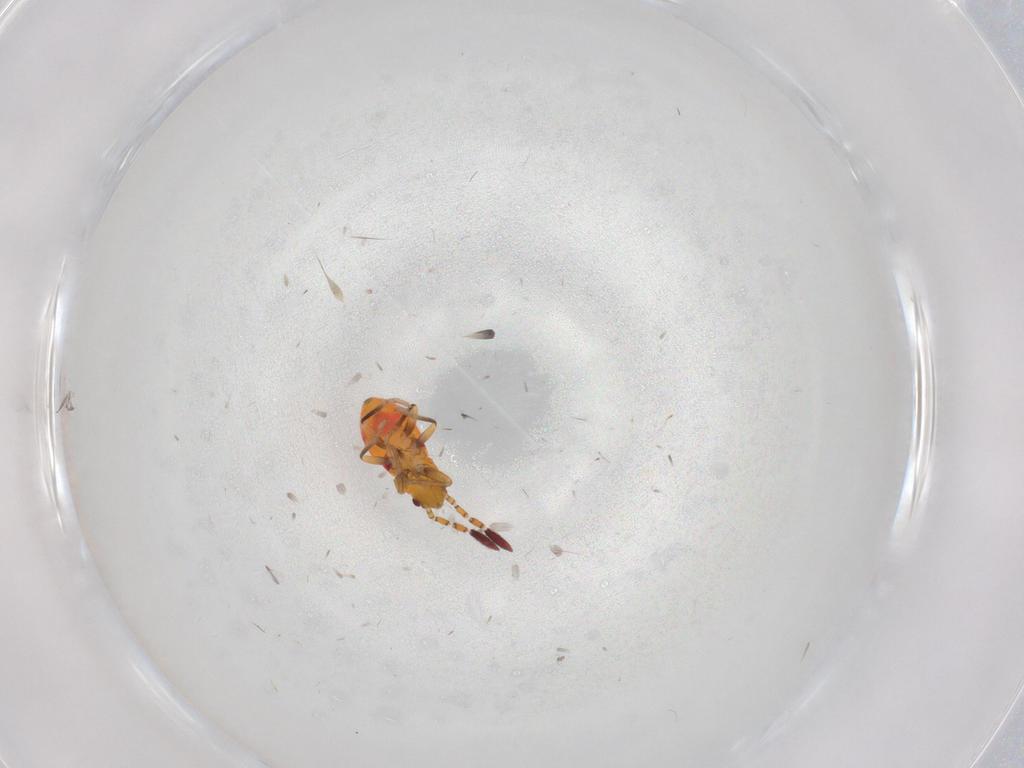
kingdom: Animalia
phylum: Arthropoda
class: Insecta
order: Hemiptera
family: Rhyparochromidae
